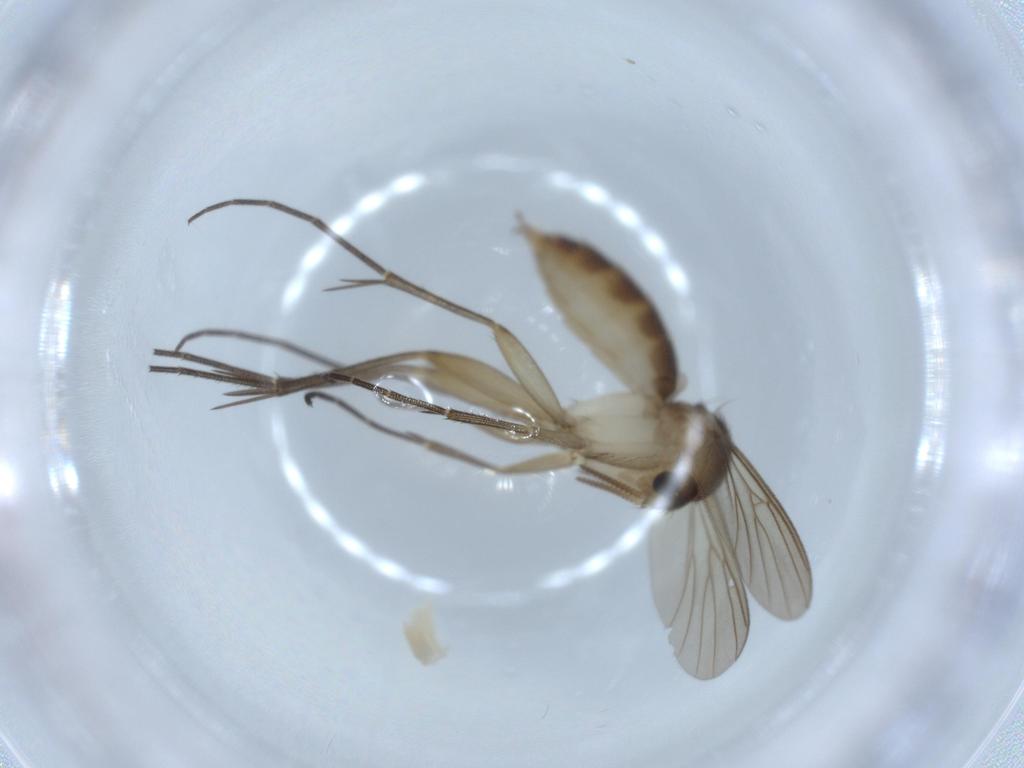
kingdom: Animalia
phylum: Arthropoda
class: Insecta
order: Diptera
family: Mycetophilidae
